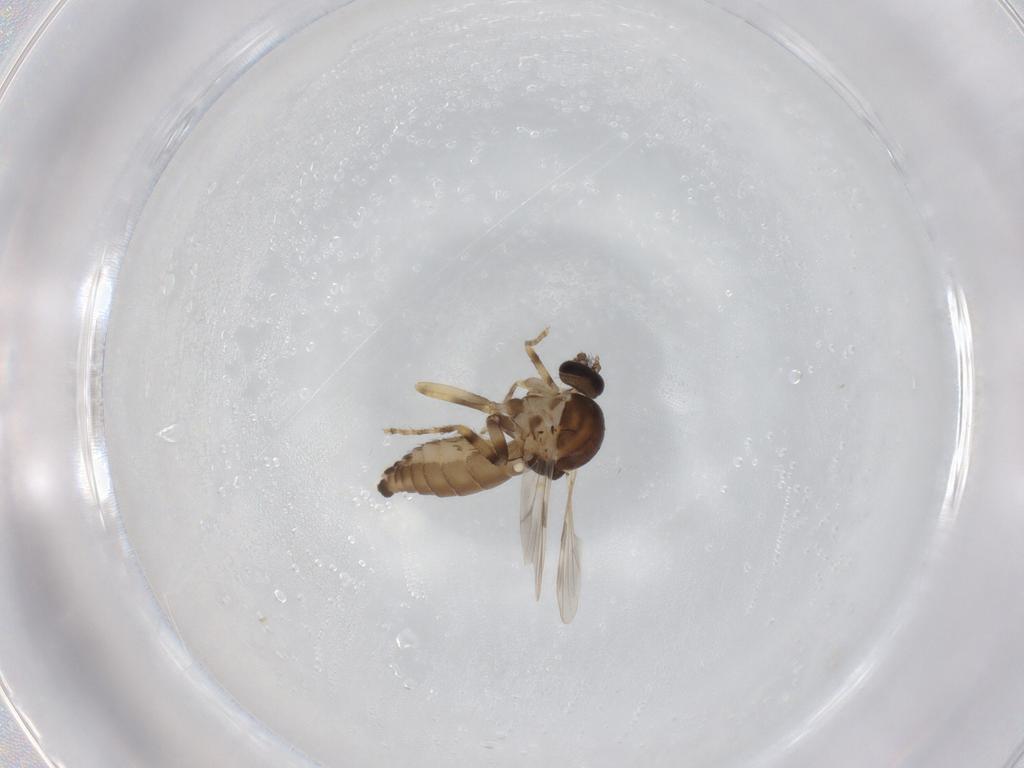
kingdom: Animalia
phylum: Arthropoda
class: Insecta
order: Diptera
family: Ceratopogonidae
